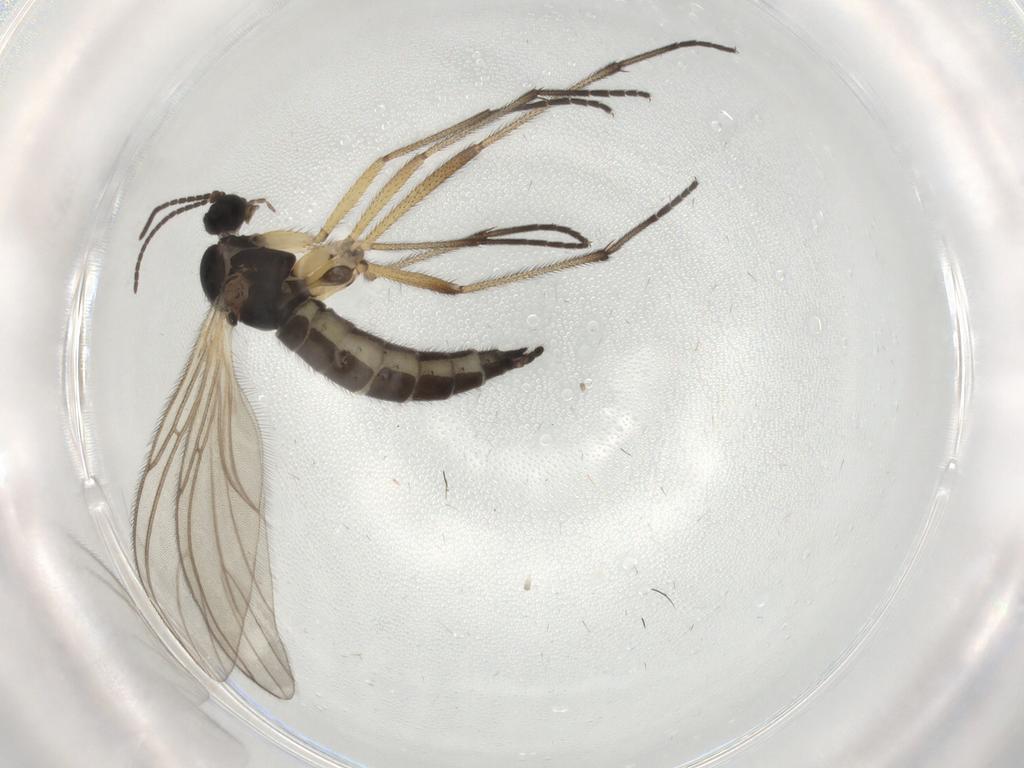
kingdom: Animalia
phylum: Arthropoda
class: Insecta
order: Diptera
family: Sciaridae
